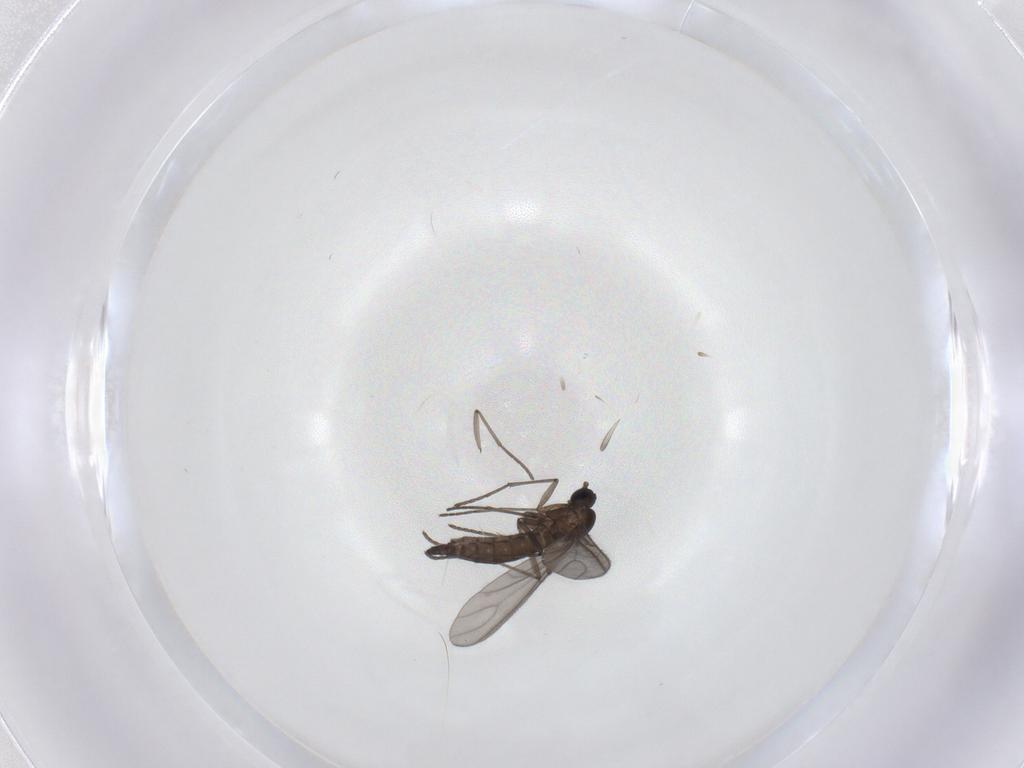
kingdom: Animalia
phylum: Arthropoda
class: Insecta
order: Diptera
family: Sciaridae
